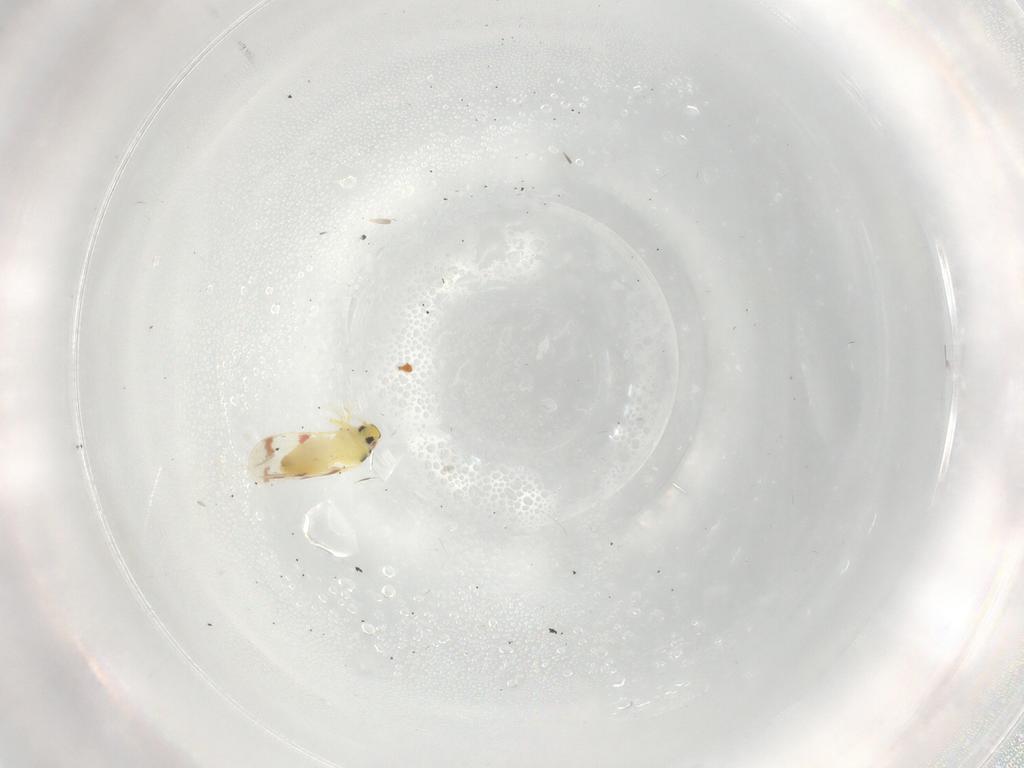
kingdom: Animalia
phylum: Arthropoda
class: Insecta
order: Hemiptera
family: Aleyrodidae
